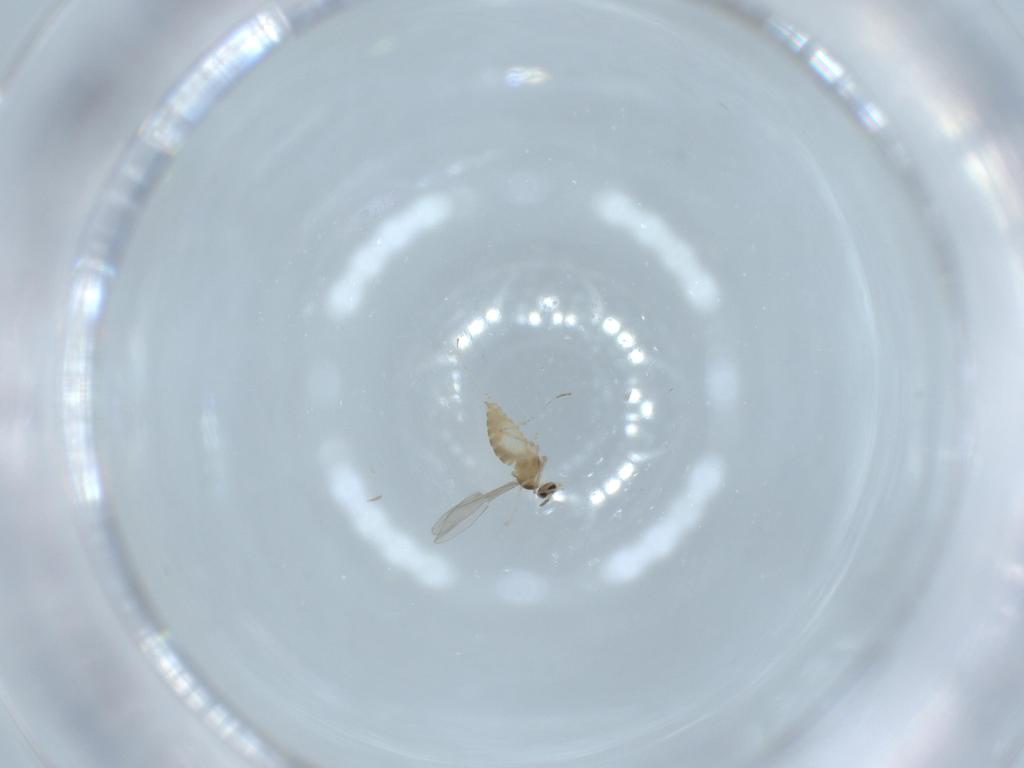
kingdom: Animalia
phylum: Arthropoda
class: Insecta
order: Diptera
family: Cecidomyiidae
